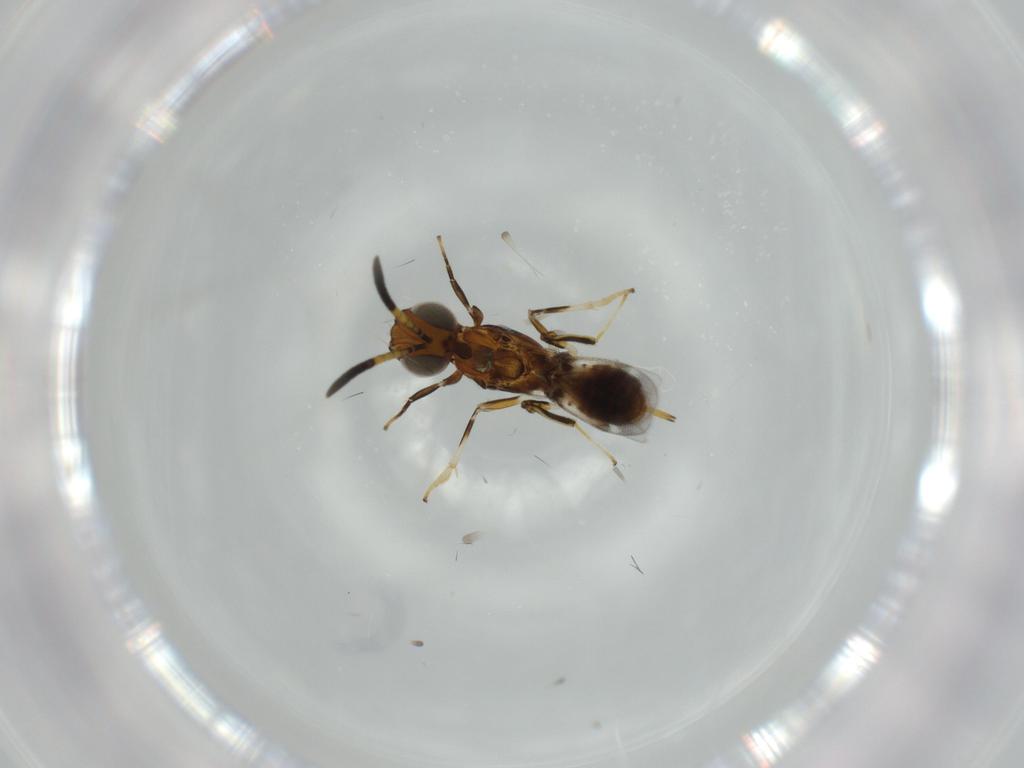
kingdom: Animalia
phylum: Arthropoda
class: Insecta
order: Hymenoptera
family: Eupelmidae
